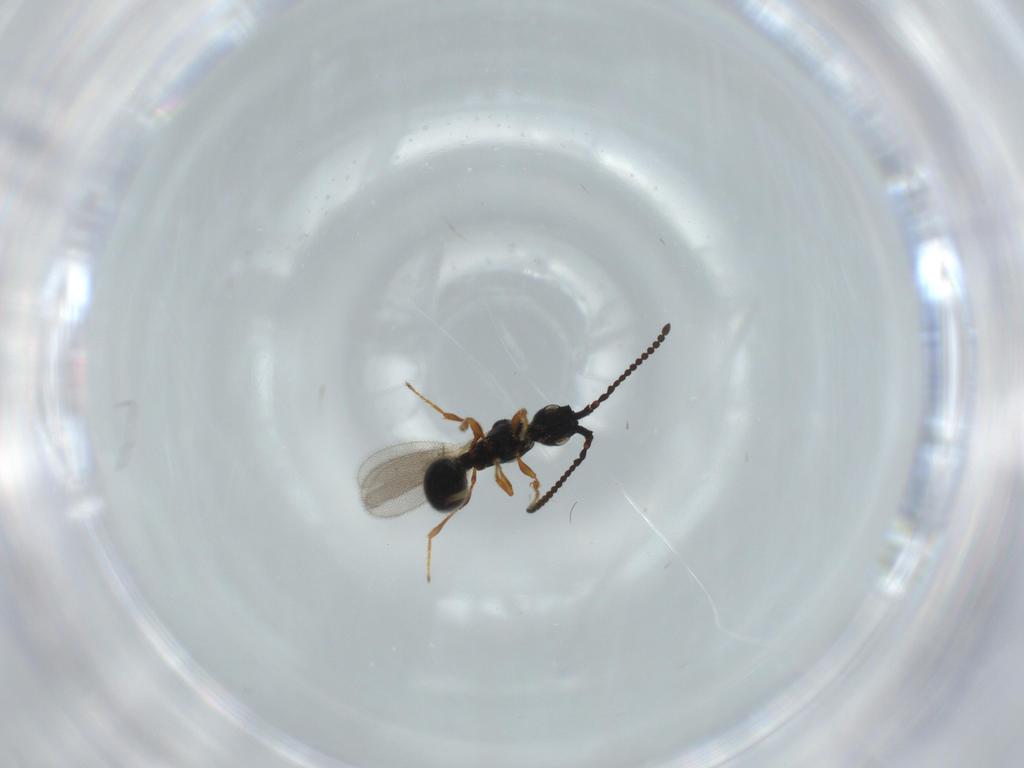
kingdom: Animalia
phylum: Arthropoda
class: Insecta
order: Hymenoptera
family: Diapriidae
